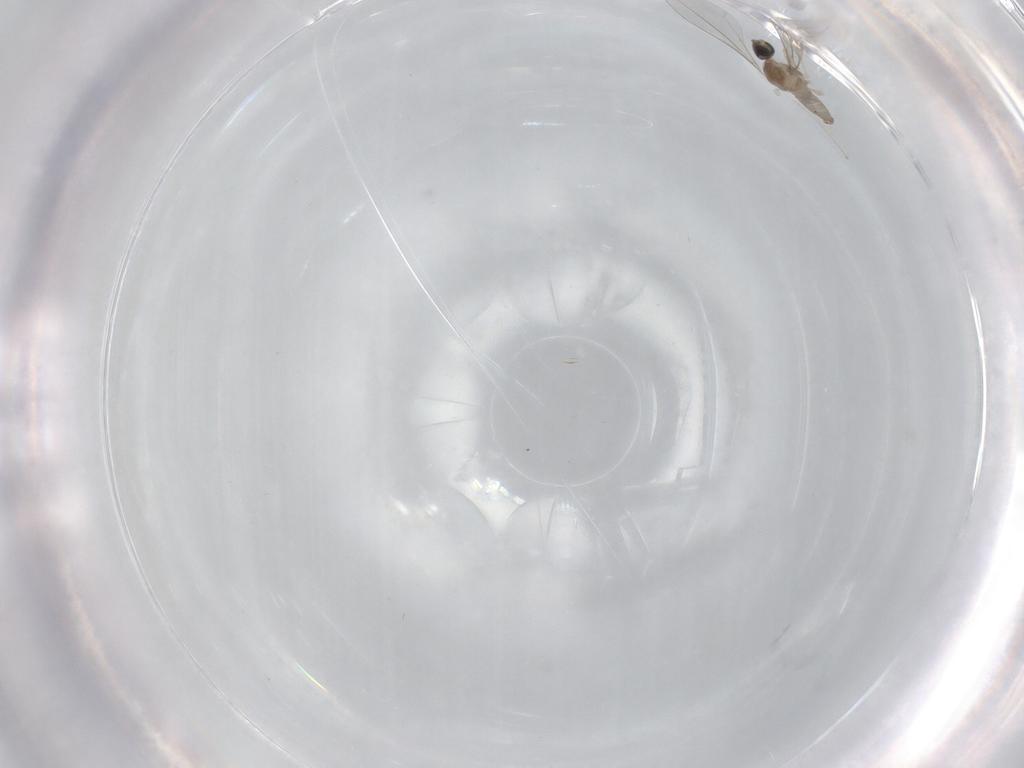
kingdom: Animalia
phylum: Arthropoda
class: Insecta
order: Diptera
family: Cecidomyiidae
